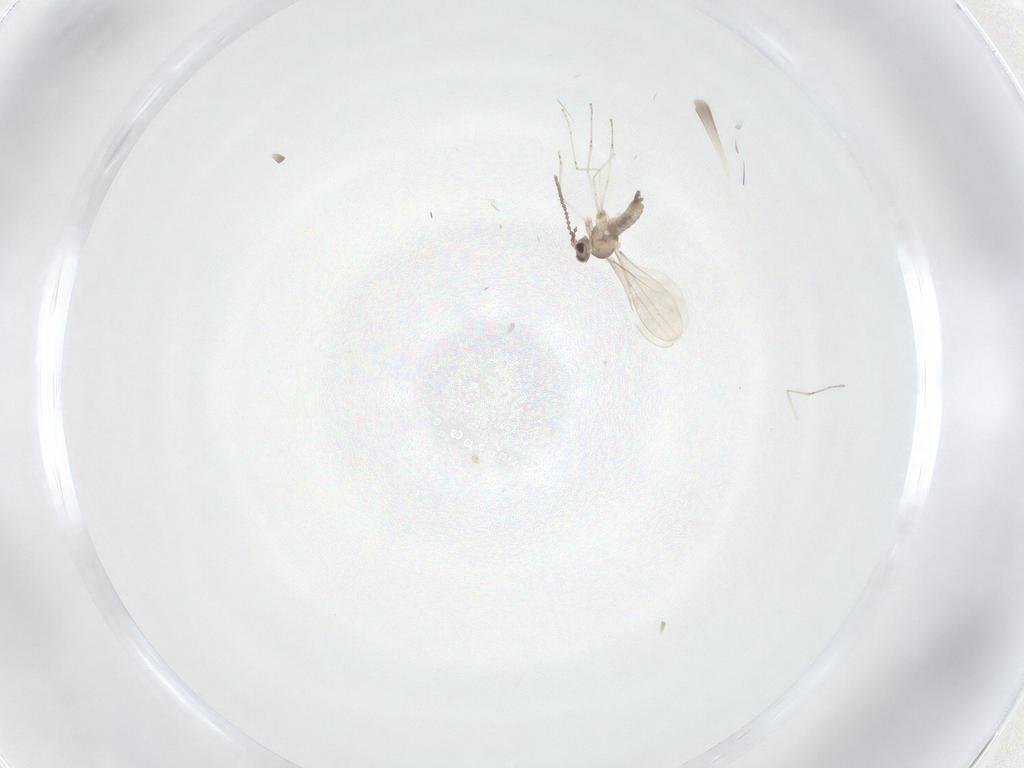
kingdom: Animalia
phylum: Arthropoda
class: Insecta
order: Diptera
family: Cecidomyiidae
